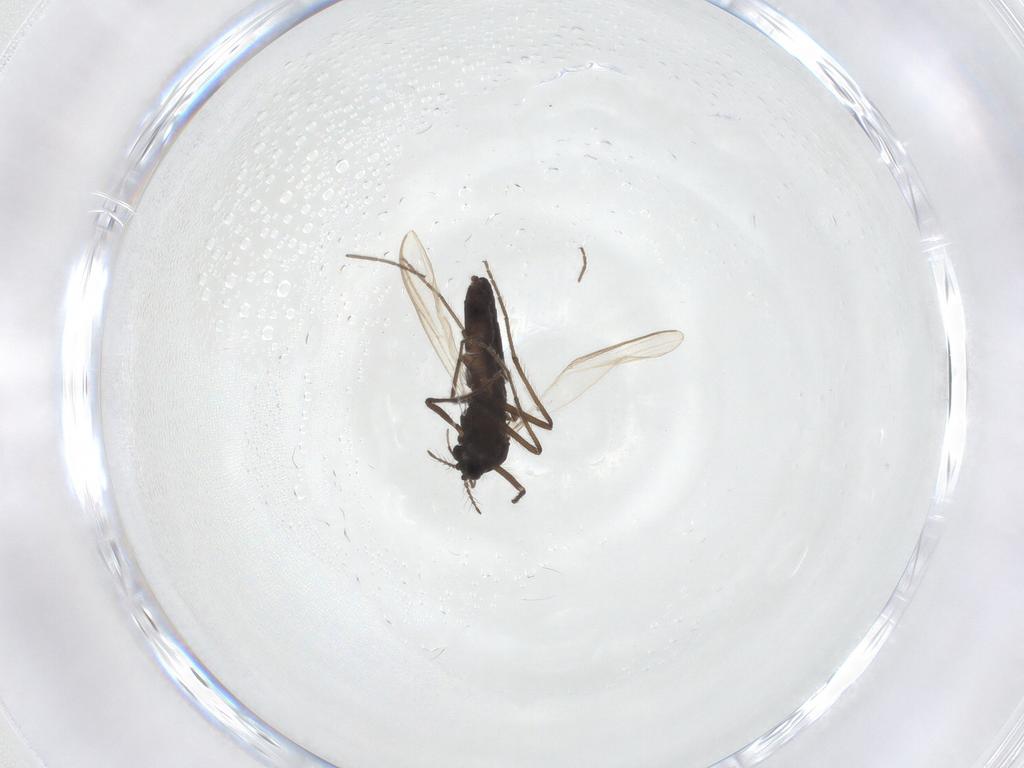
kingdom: Animalia
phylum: Arthropoda
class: Insecta
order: Diptera
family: Chironomidae
